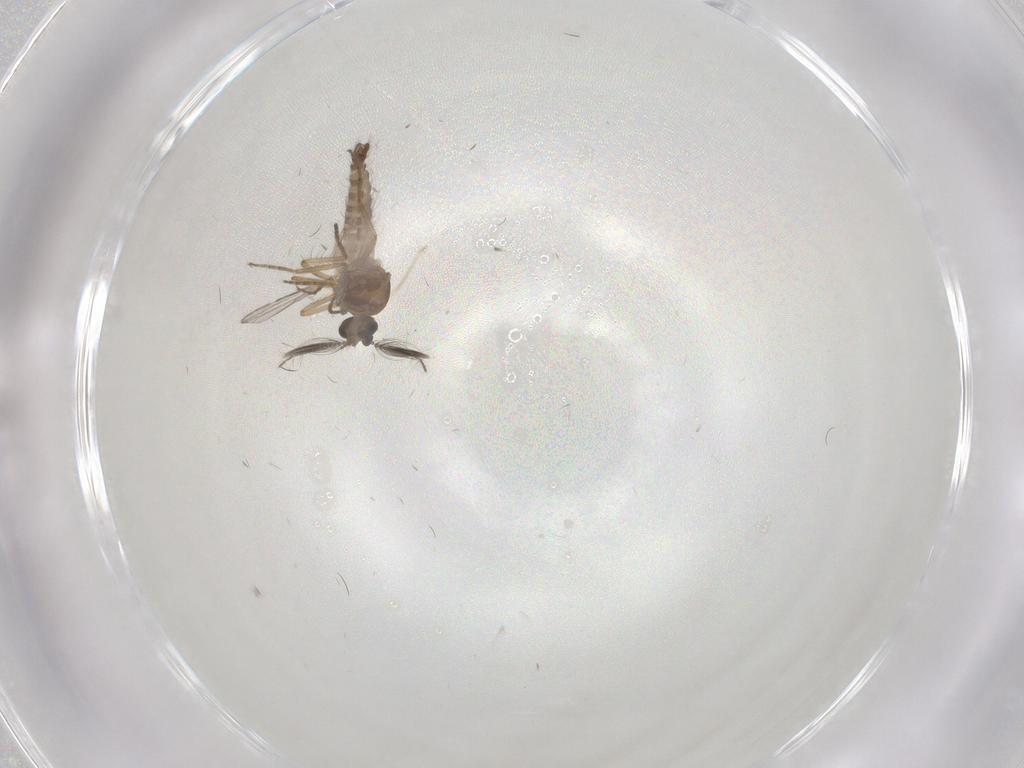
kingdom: Animalia
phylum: Arthropoda
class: Insecta
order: Diptera
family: Ceratopogonidae
